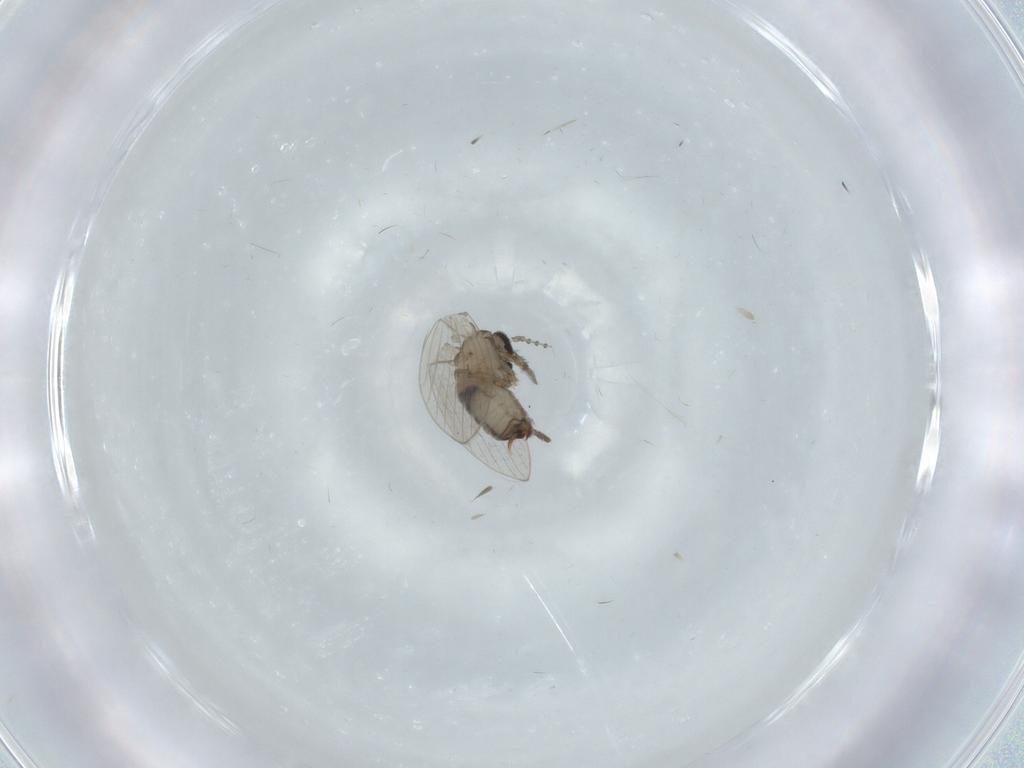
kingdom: Animalia
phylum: Arthropoda
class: Insecta
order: Diptera
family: Psychodidae
